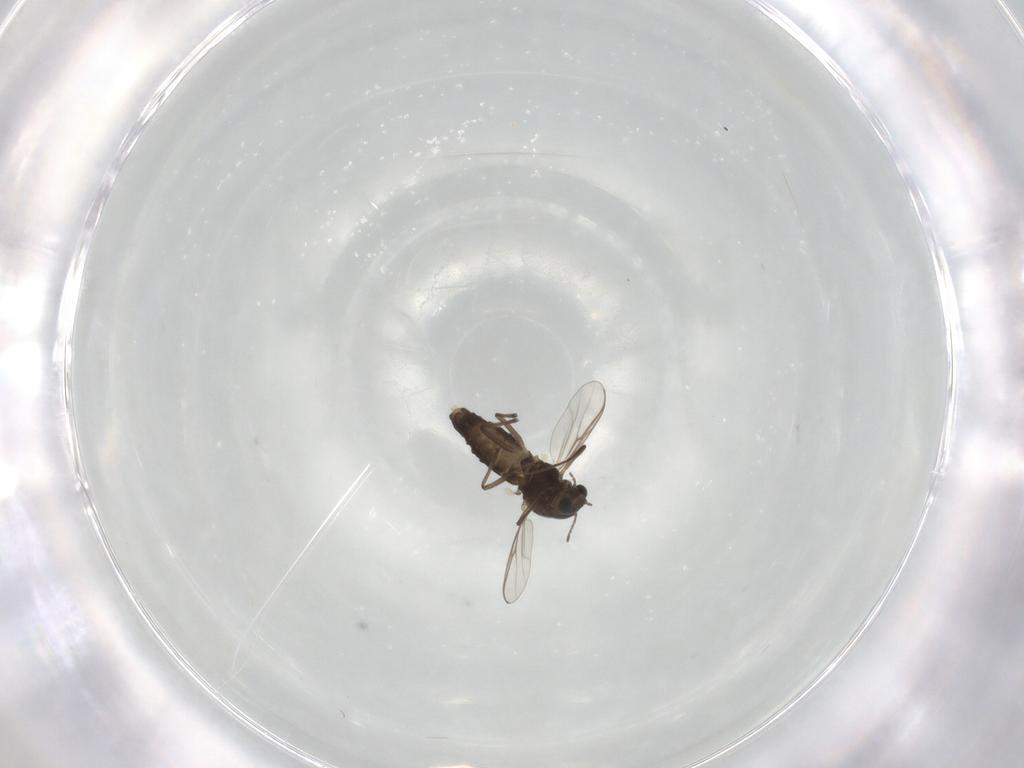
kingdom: Animalia
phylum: Arthropoda
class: Insecta
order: Diptera
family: Chironomidae
